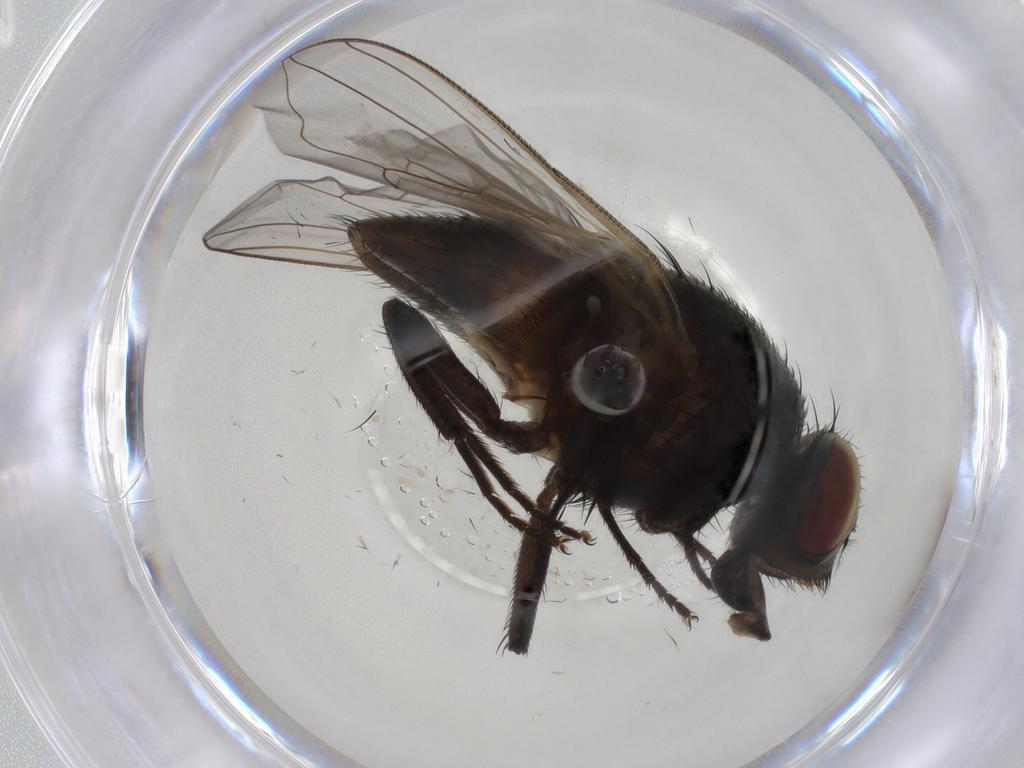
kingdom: Animalia
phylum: Arthropoda
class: Insecta
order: Diptera
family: Muscidae
